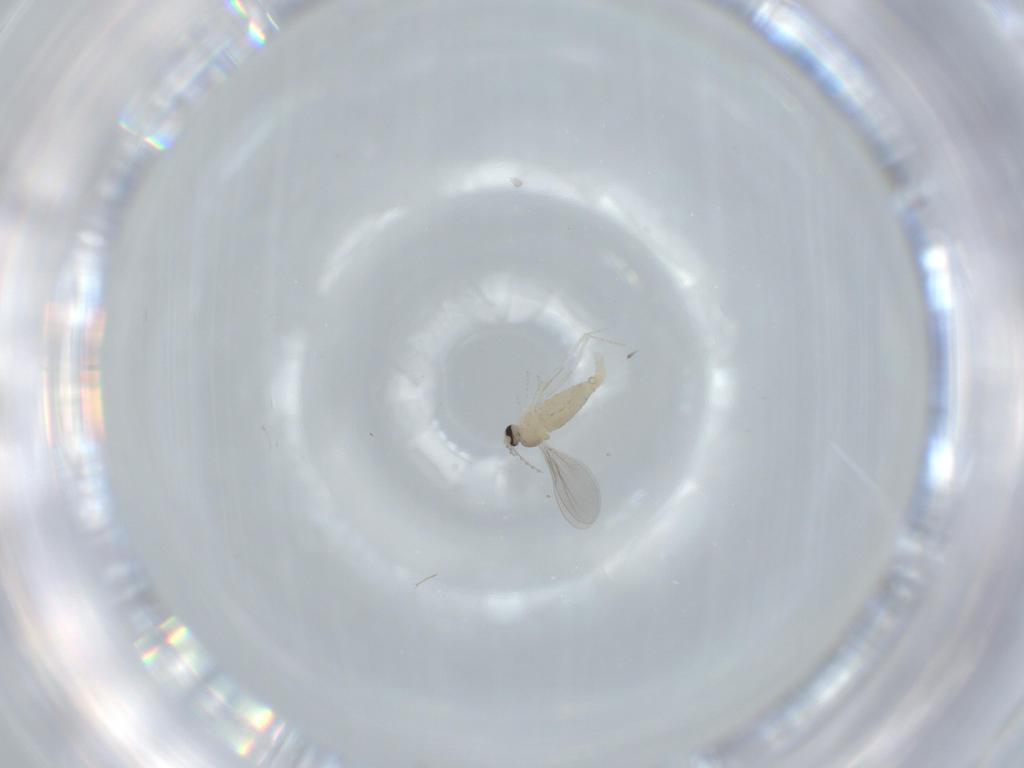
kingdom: Animalia
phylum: Arthropoda
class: Insecta
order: Diptera
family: Cecidomyiidae
